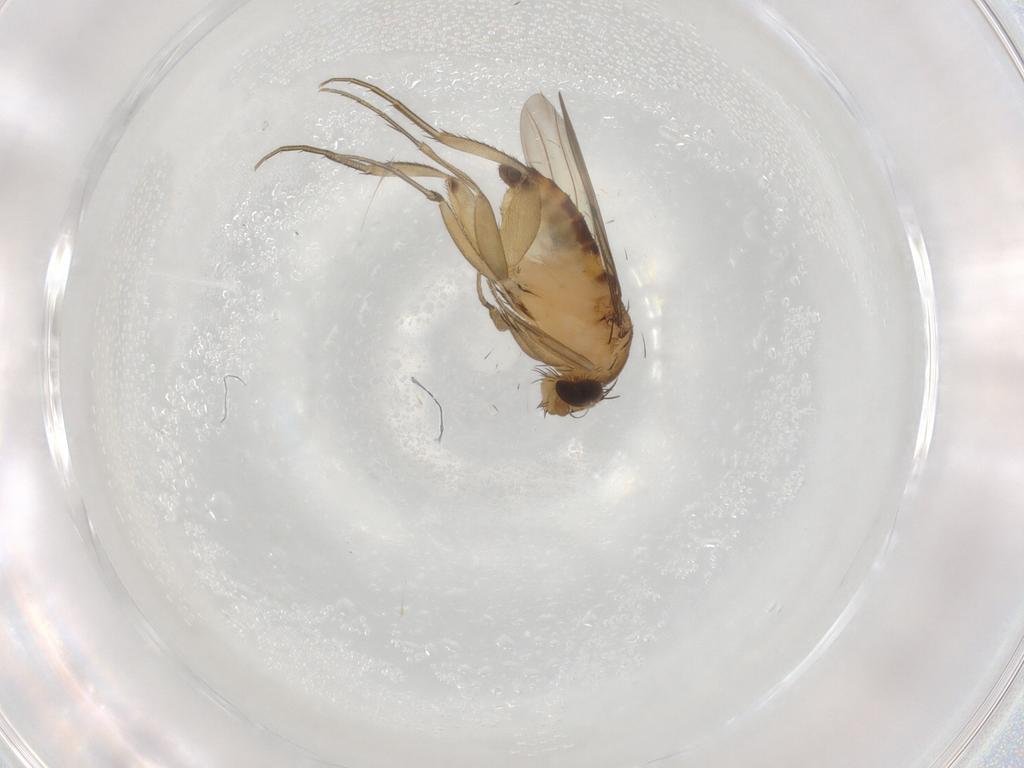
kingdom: Animalia
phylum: Arthropoda
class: Insecta
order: Diptera
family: Phoridae
